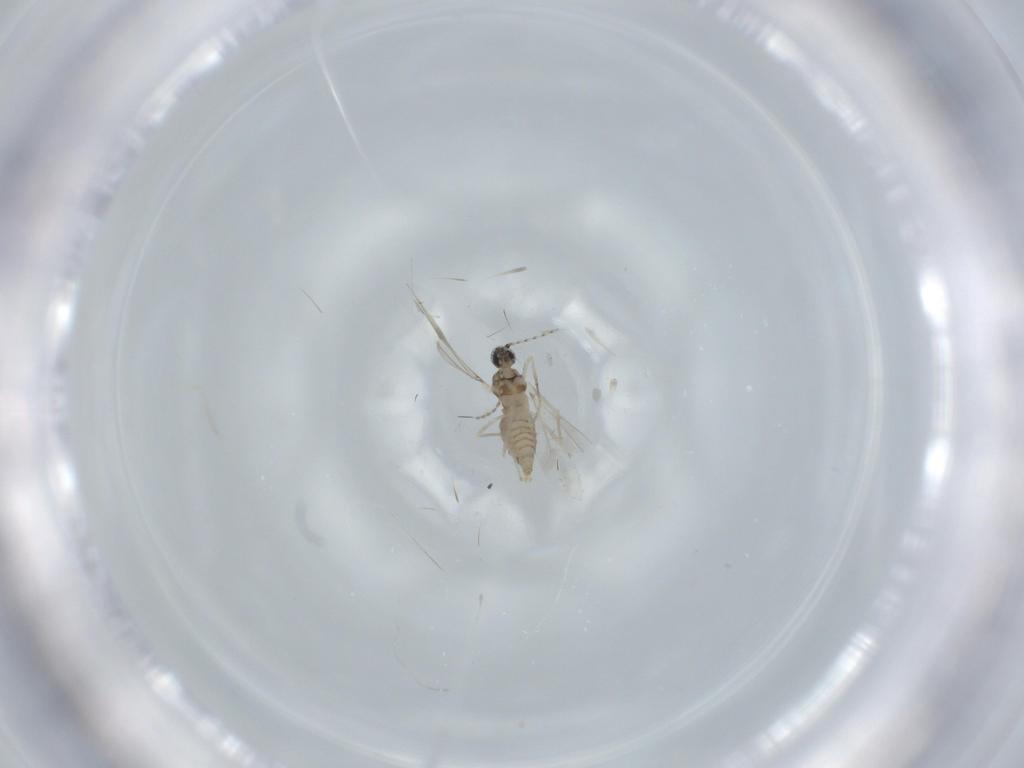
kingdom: Animalia
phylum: Arthropoda
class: Insecta
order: Diptera
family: Cecidomyiidae
